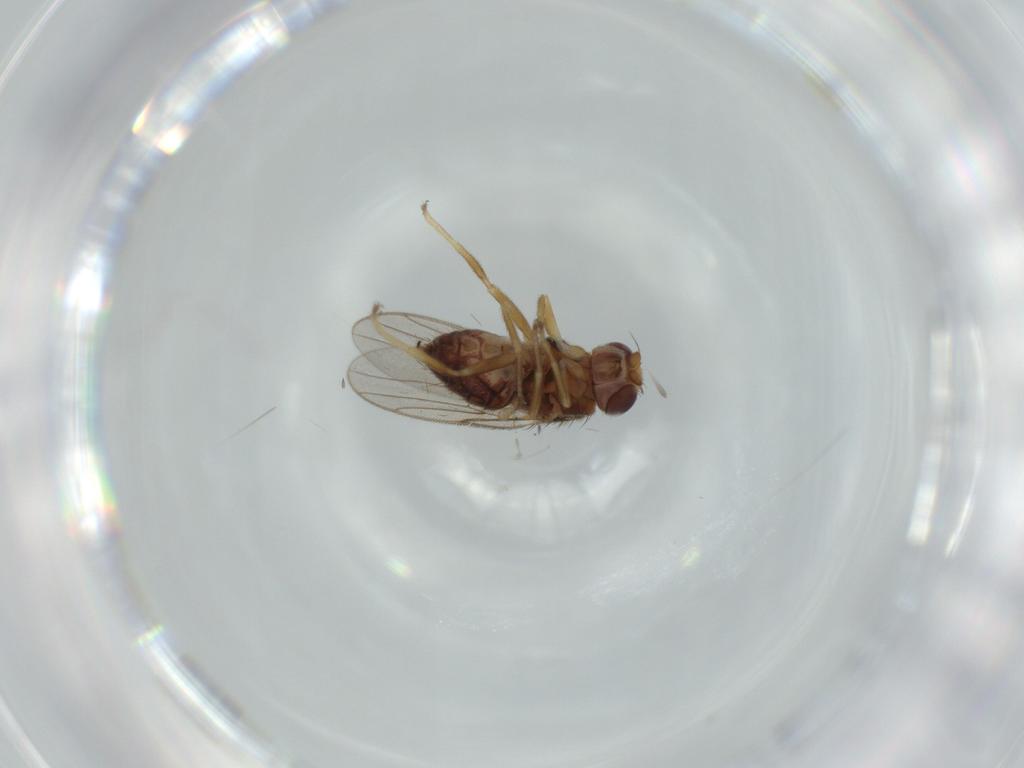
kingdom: Animalia
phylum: Arthropoda
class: Insecta
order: Diptera
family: Chloropidae
